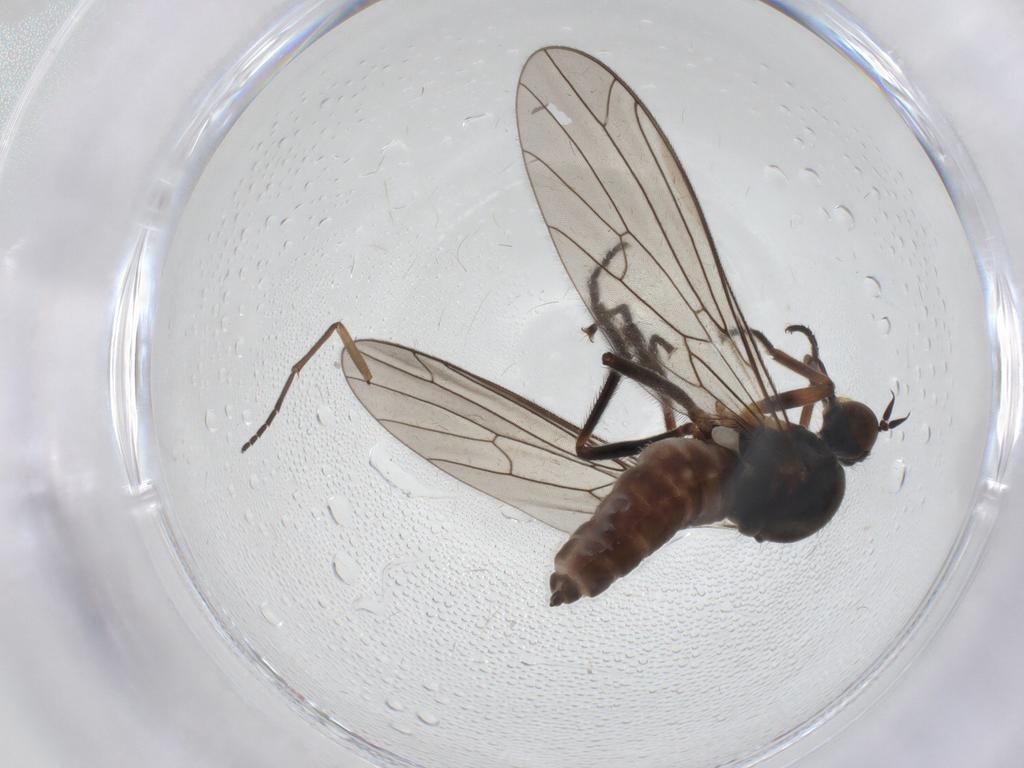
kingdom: Animalia
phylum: Arthropoda
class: Insecta
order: Diptera
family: Empididae
